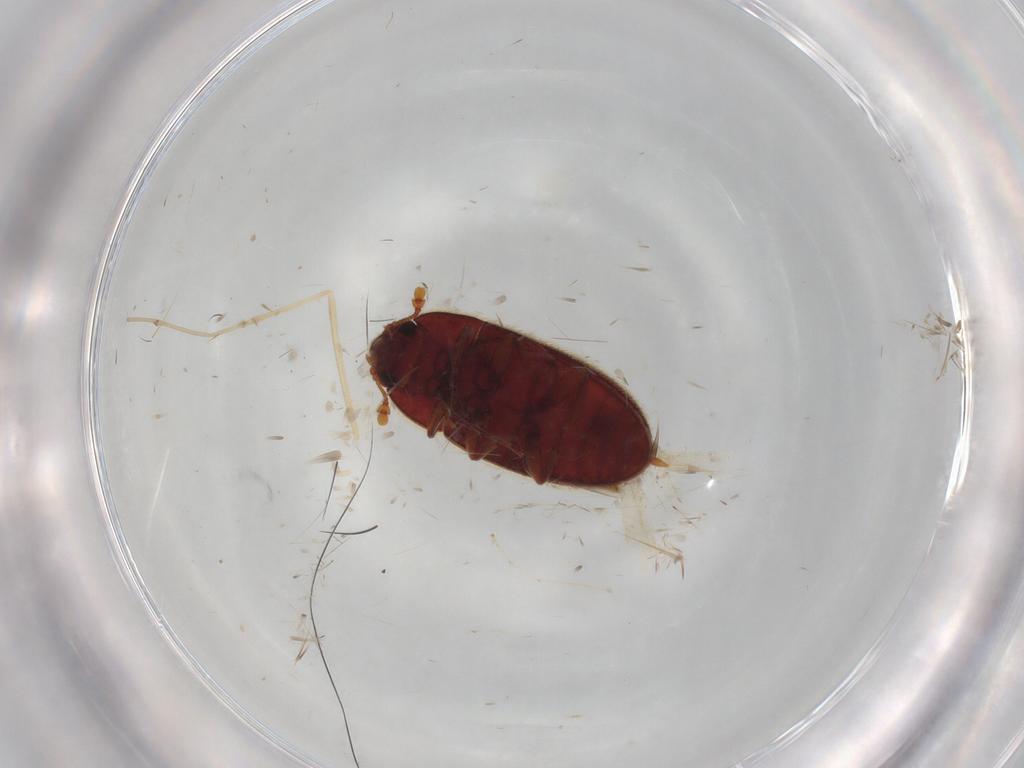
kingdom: Animalia
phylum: Arthropoda
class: Insecta
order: Coleoptera
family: Biphyllidae
